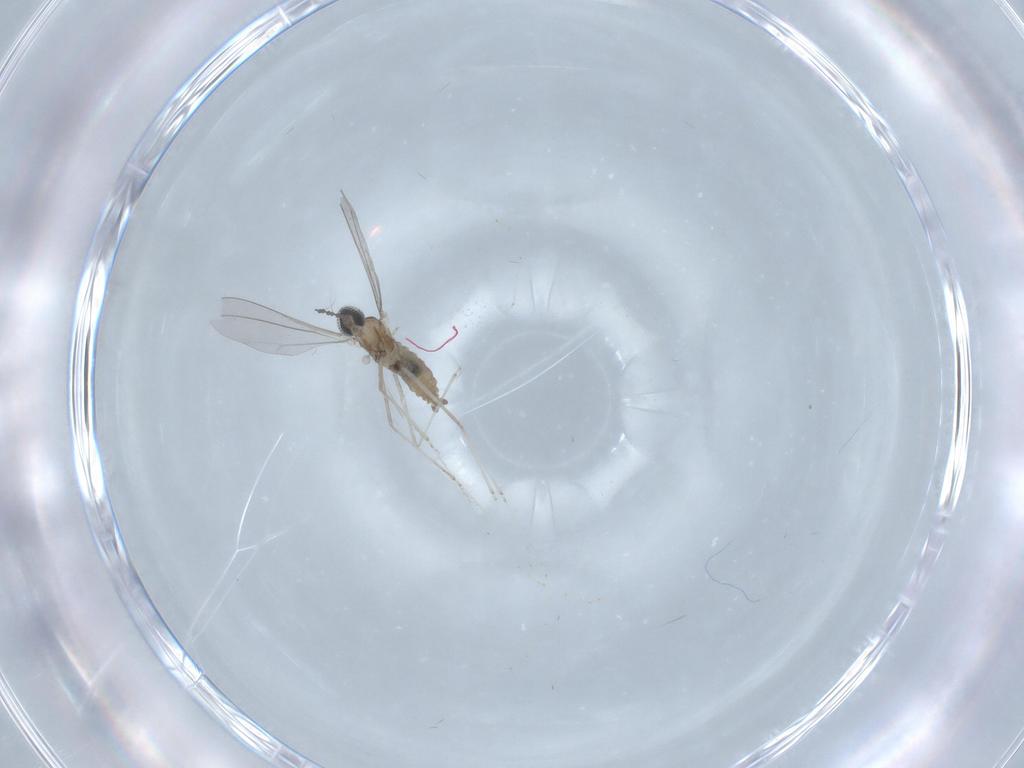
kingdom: Animalia
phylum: Arthropoda
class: Insecta
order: Diptera
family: Cecidomyiidae
